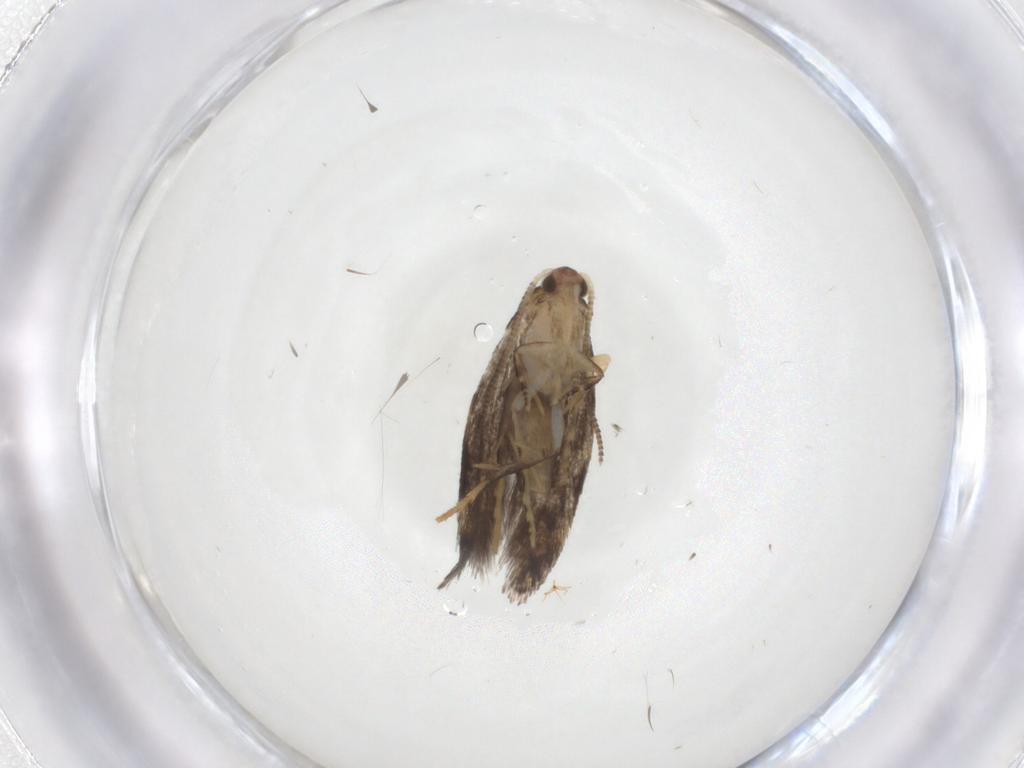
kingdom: Animalia
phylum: Arthropoda
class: Insecta
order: Lepidoptera
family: Tineidae
